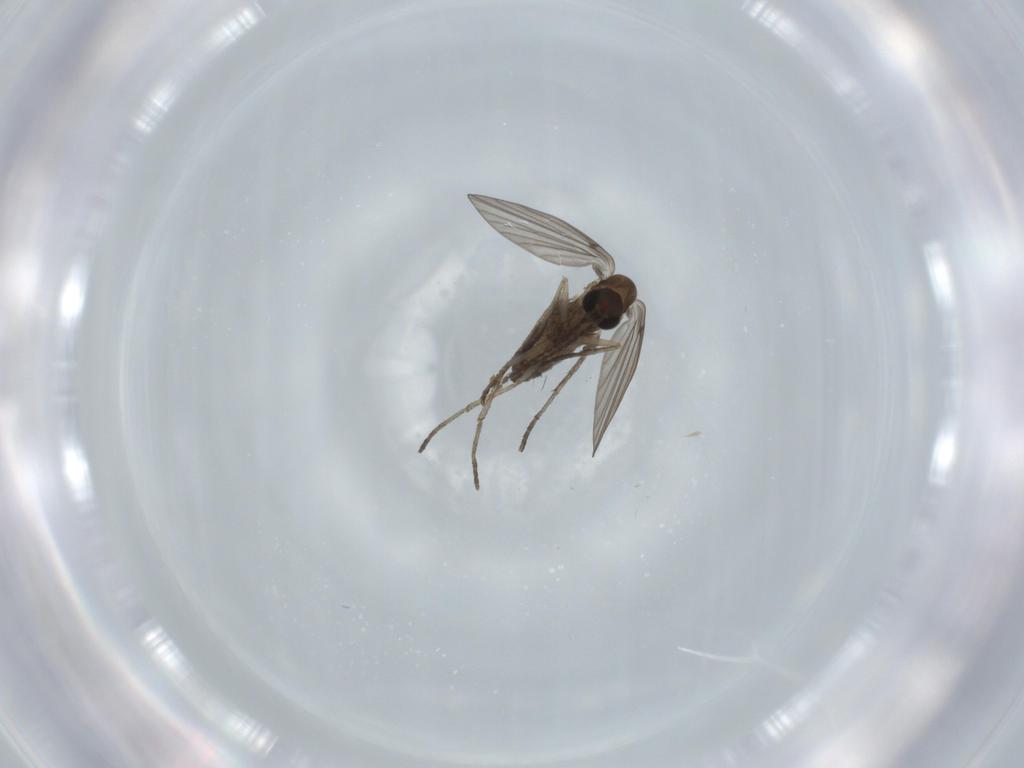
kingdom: Animalia
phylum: Arthropoda
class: Insecta
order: Diptera
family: Psychodidae
